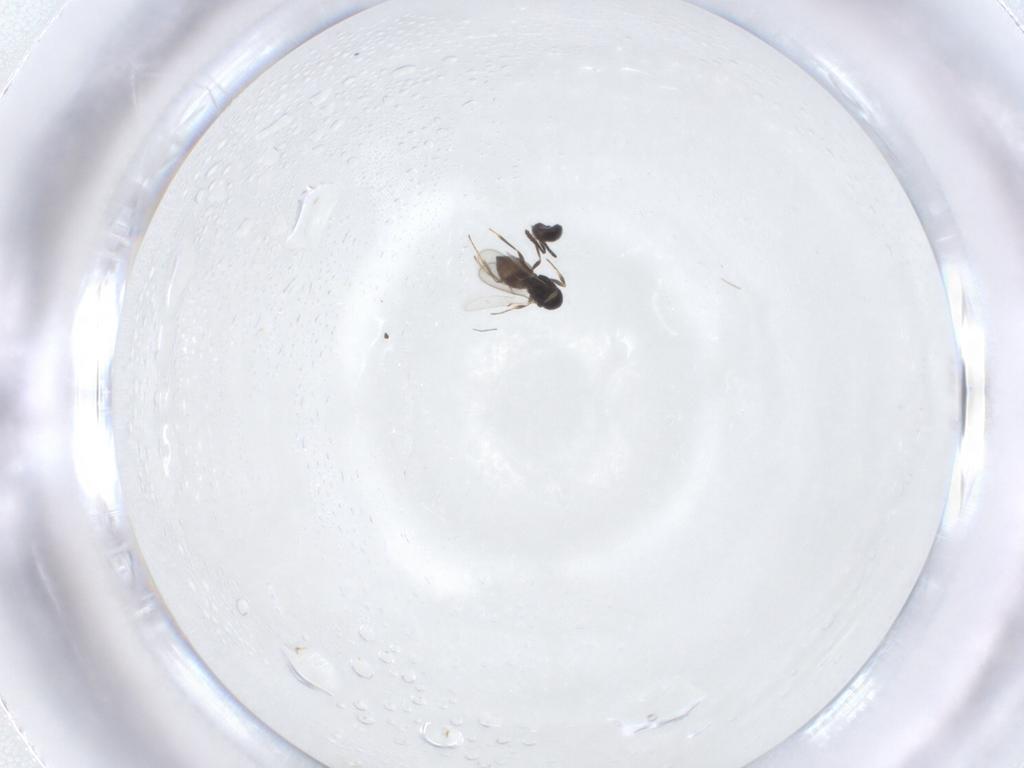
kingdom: Animalia
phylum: Arthropoda
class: Insecta
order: Hymenoptera
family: Scelionidae
